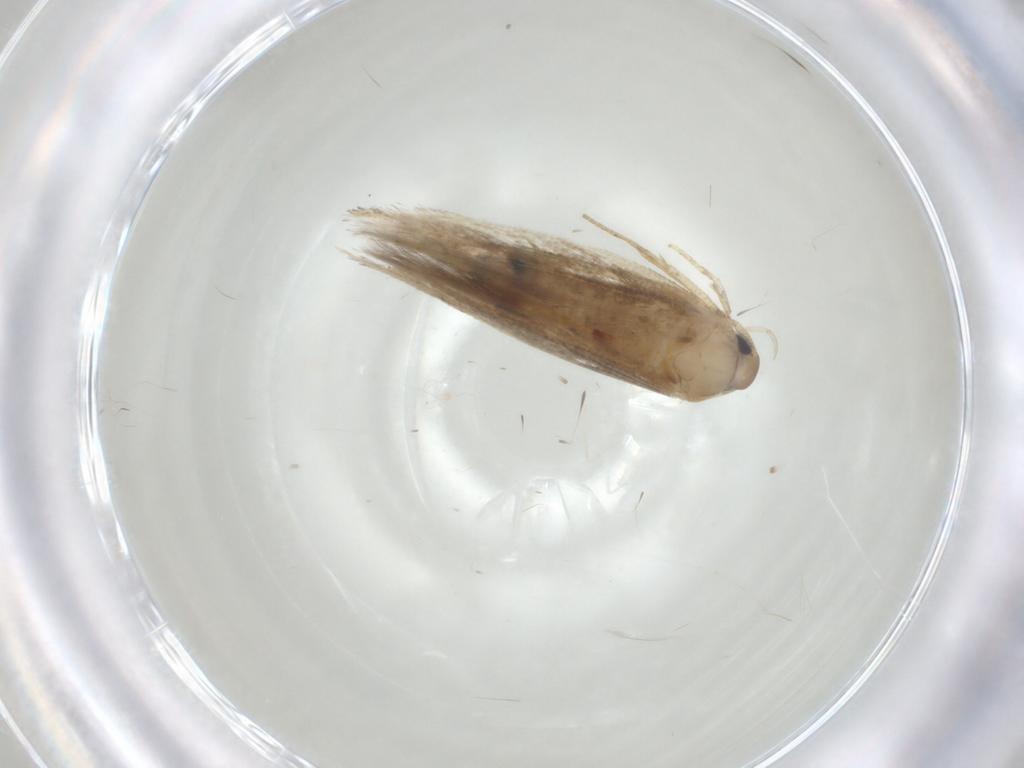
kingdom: Animalia
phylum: Arthropoda
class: Insecta
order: Lepidoptera
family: Cosmopterigidae
